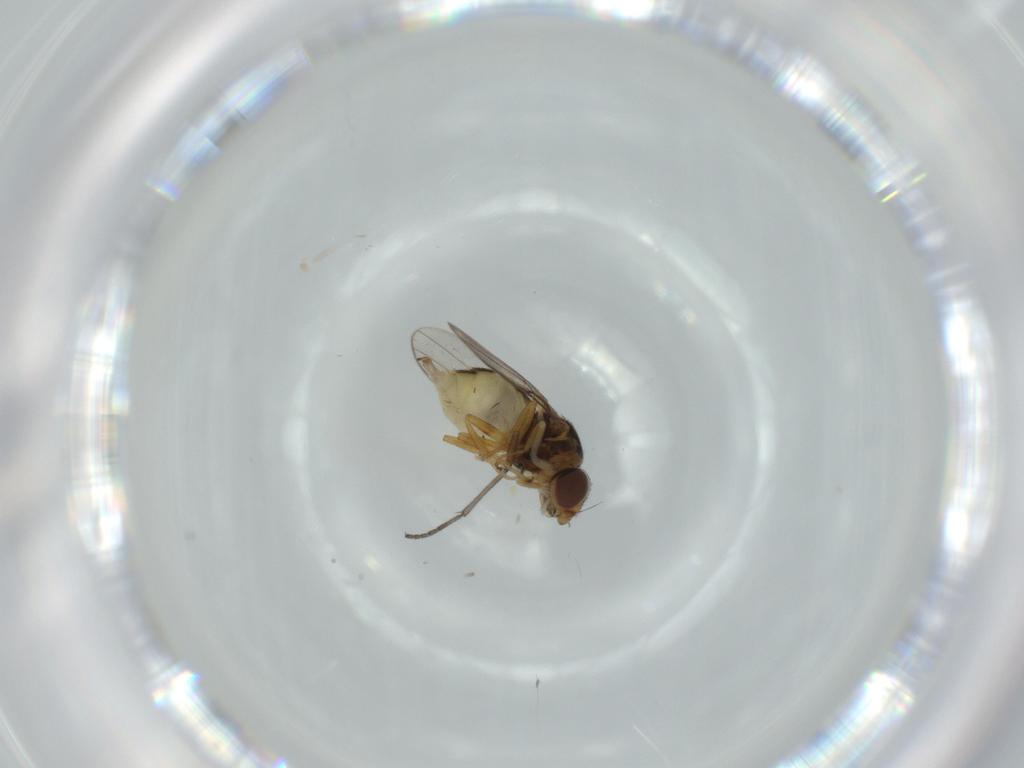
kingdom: Animalia
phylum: Arthropoda
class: Insecta
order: Diptera
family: Chloropidae
